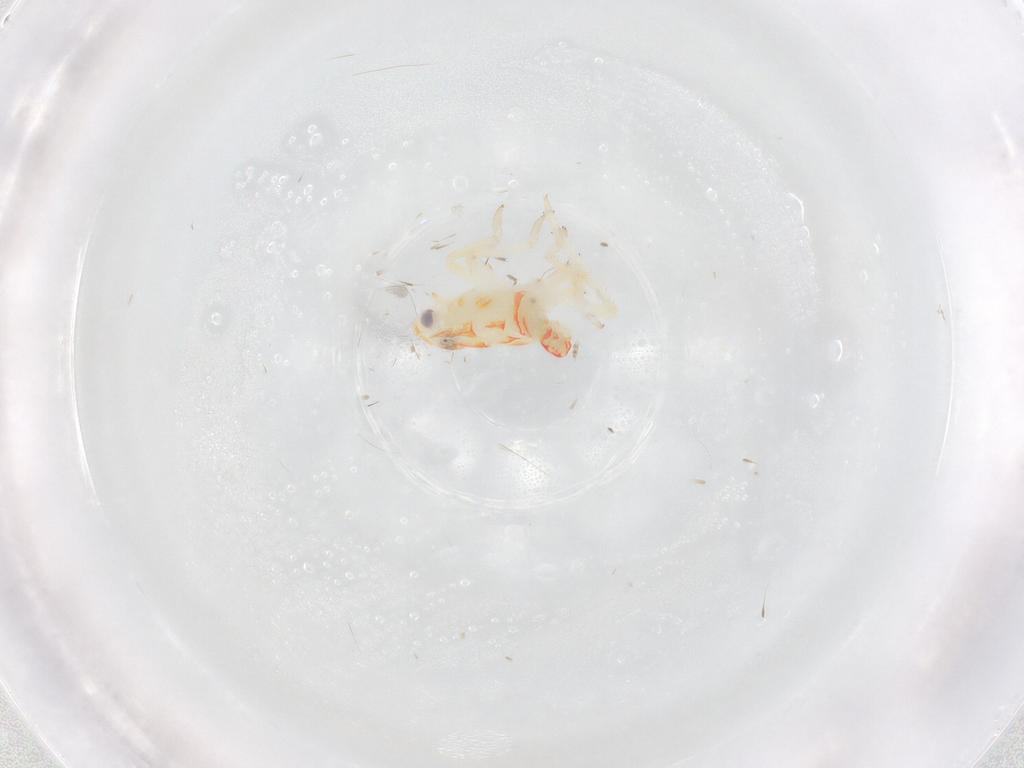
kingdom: Animalia
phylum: Arthropoda
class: Insecta
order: Hemiptera
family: Tropiduchidae
